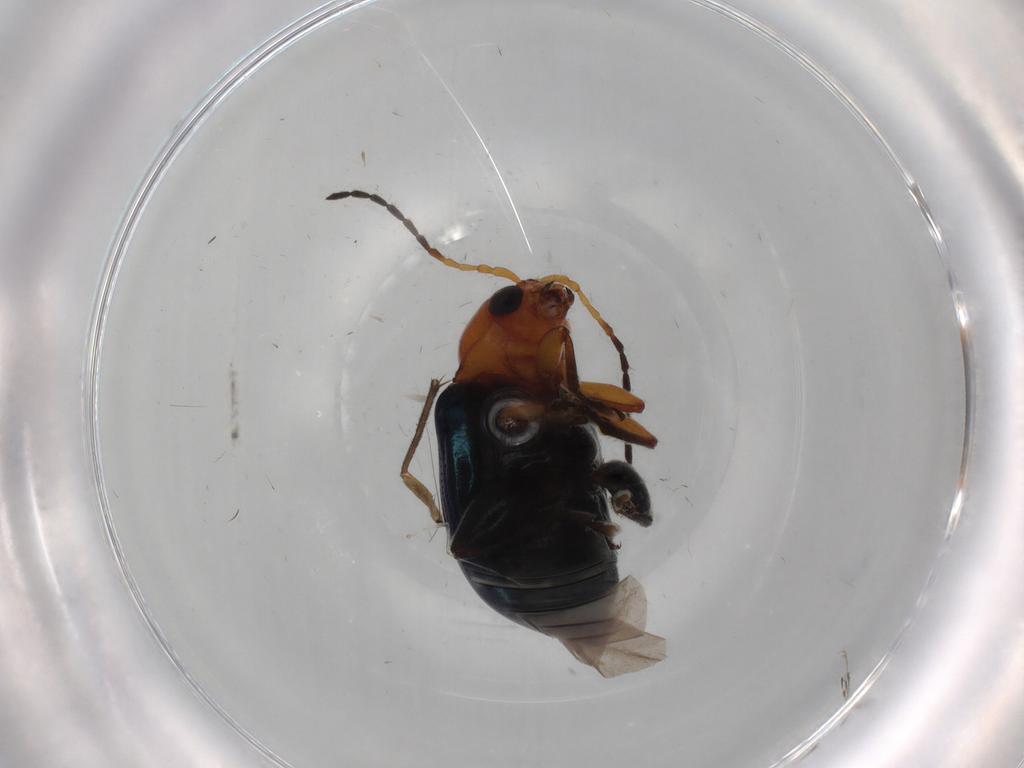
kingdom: Animalia
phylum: Arthropoda
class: Insecta
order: Coleoptera
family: Chrysomelidae
